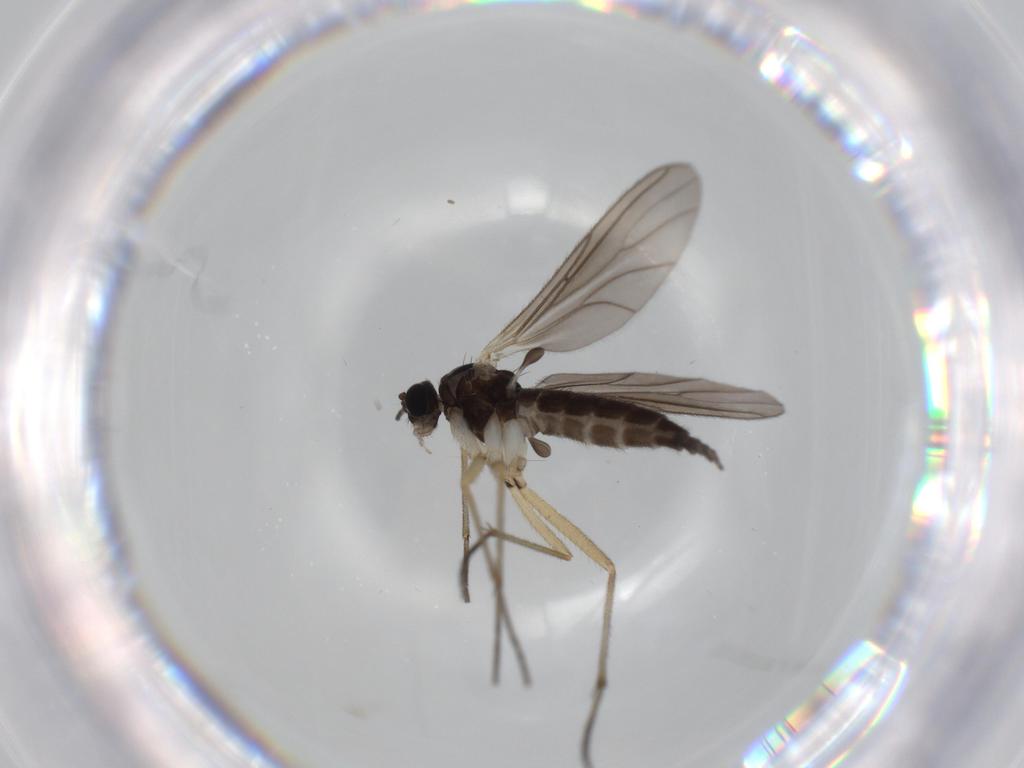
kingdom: Animalia
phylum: Arthropoda
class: Insecta
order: Diptera
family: Sciaridae
